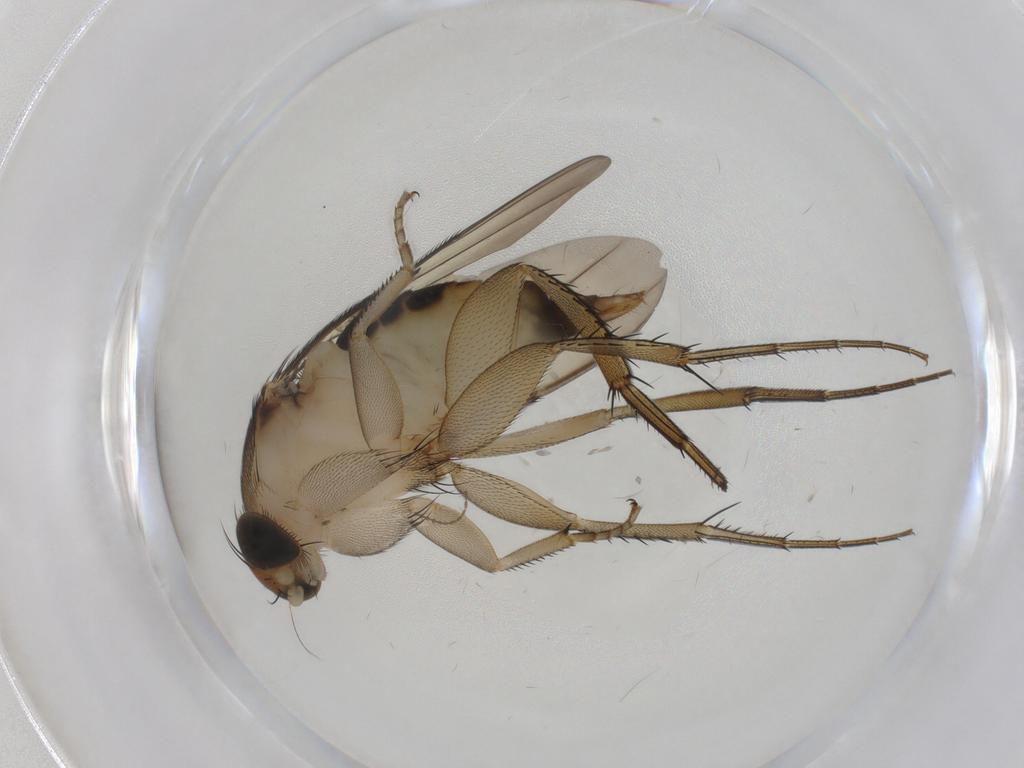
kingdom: Animalia
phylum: Arthropoda
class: Insecta
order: Diptera
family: Phoridae
